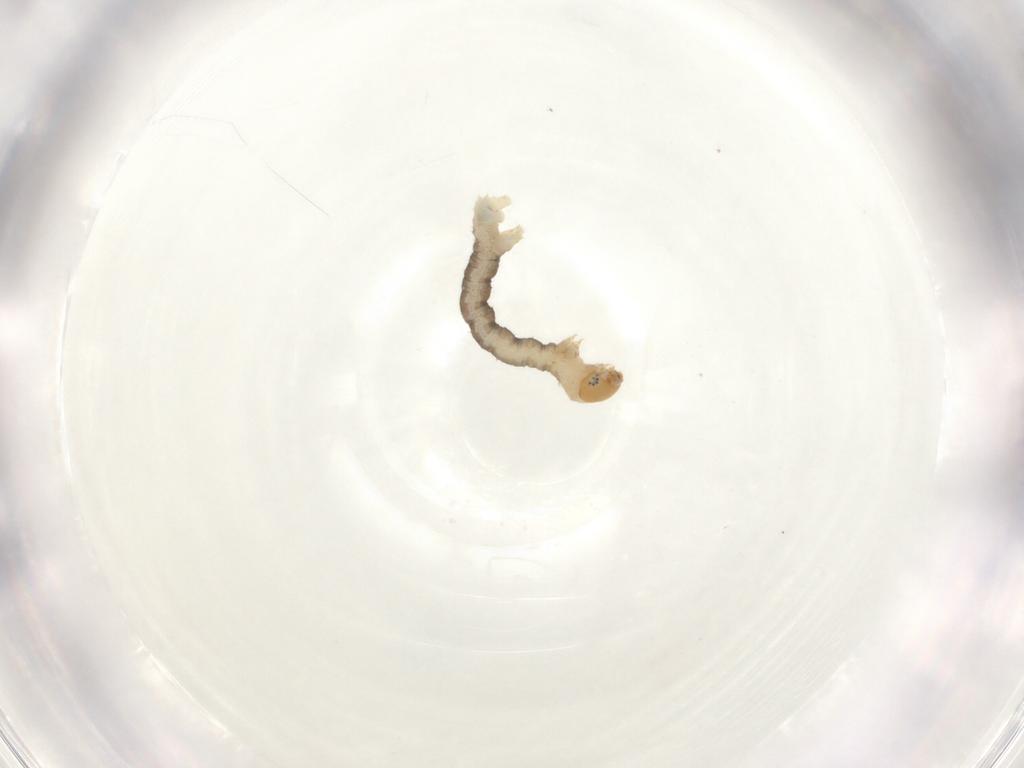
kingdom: Animalia
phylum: Arthropoda
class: Insecta
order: Lepidoptera
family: Geometridae
